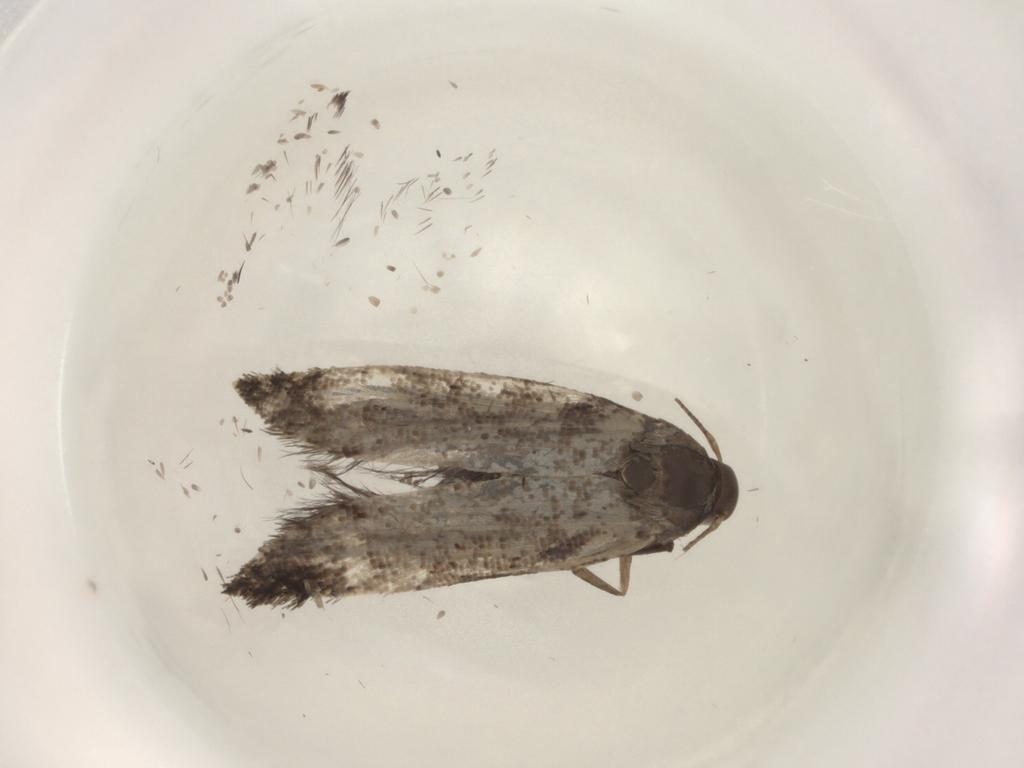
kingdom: Animalia
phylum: Arthropoda
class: Insecta
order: Lepidoptera
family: Crambidae
